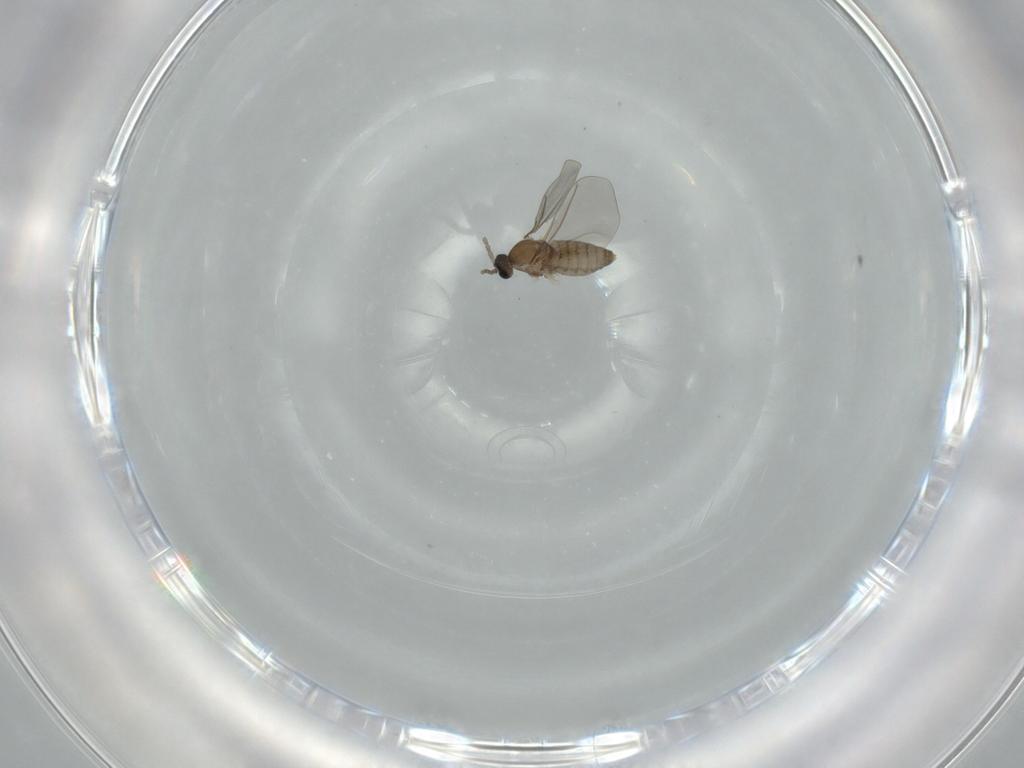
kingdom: Animalia
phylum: Arthropoda
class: Insecta
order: Diptera
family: Cecidomyiidae
